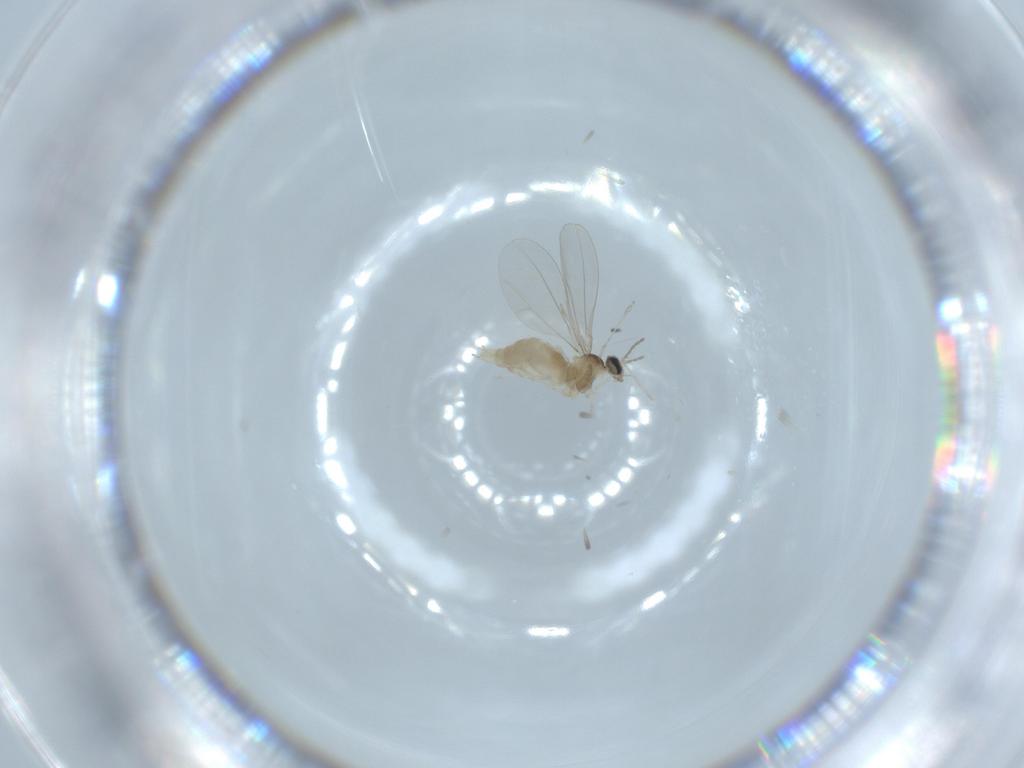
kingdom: Animalia
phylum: Arthropoda
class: Insecta
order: Diptera
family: Cecidomyiidae
